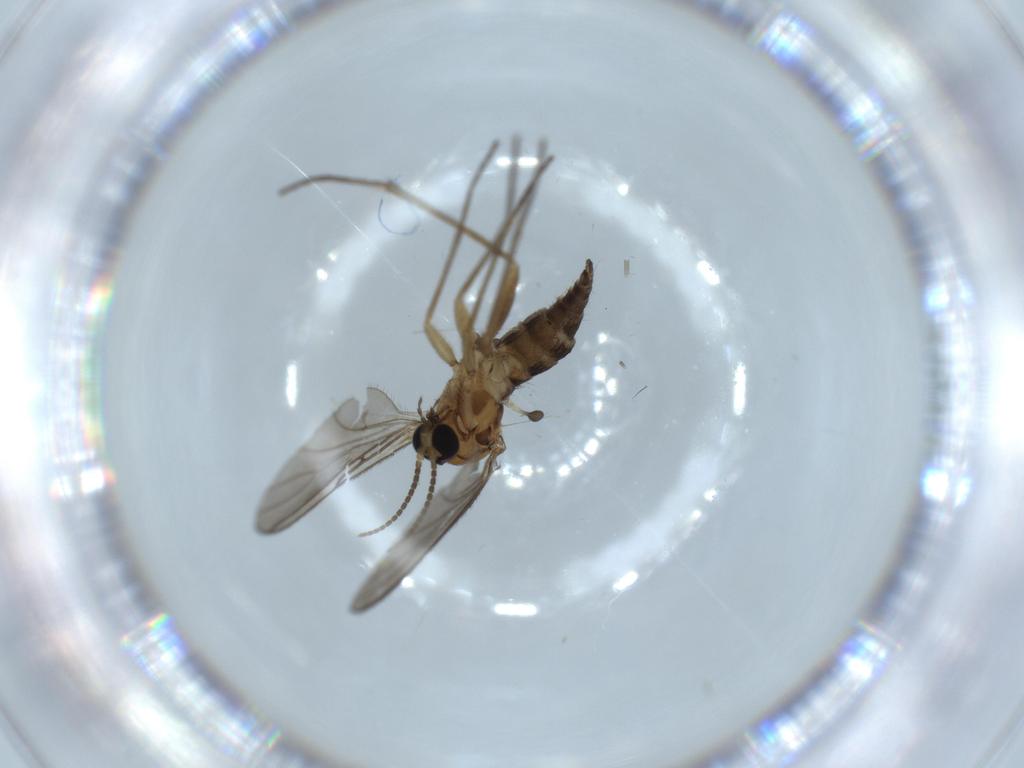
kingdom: Animalia
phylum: Arthropoda
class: Insecta
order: Diptera
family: Sciaridae
